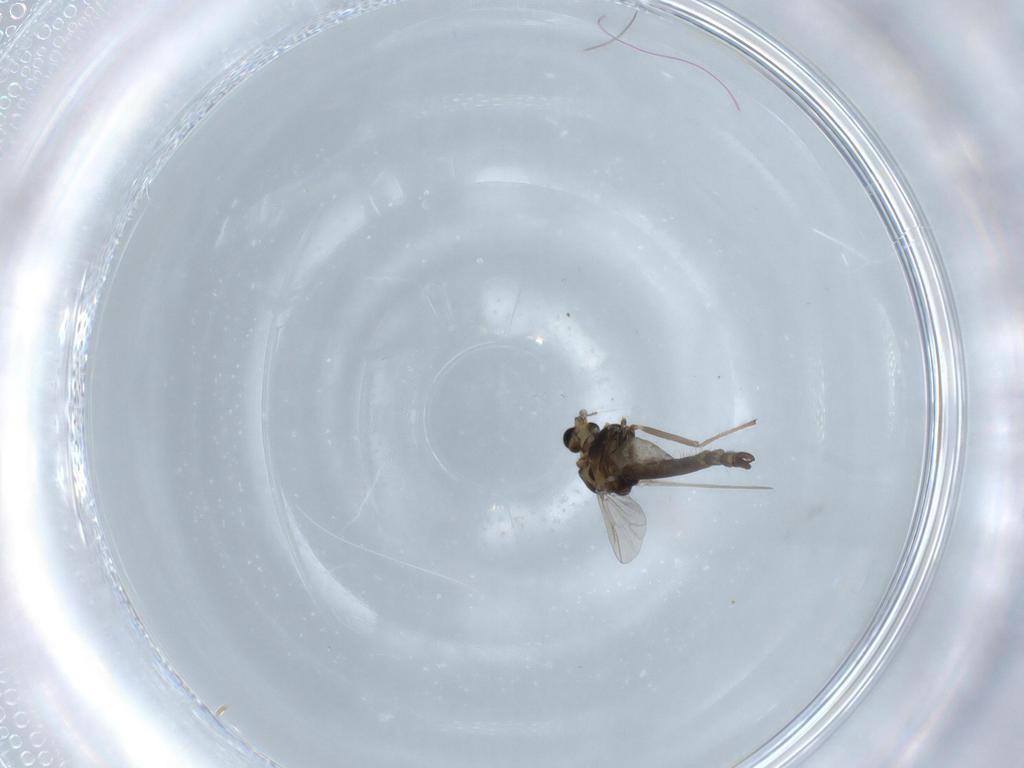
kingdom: Animalia
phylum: Arthropoda
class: Insecta
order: Diptera
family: Chironomidae
